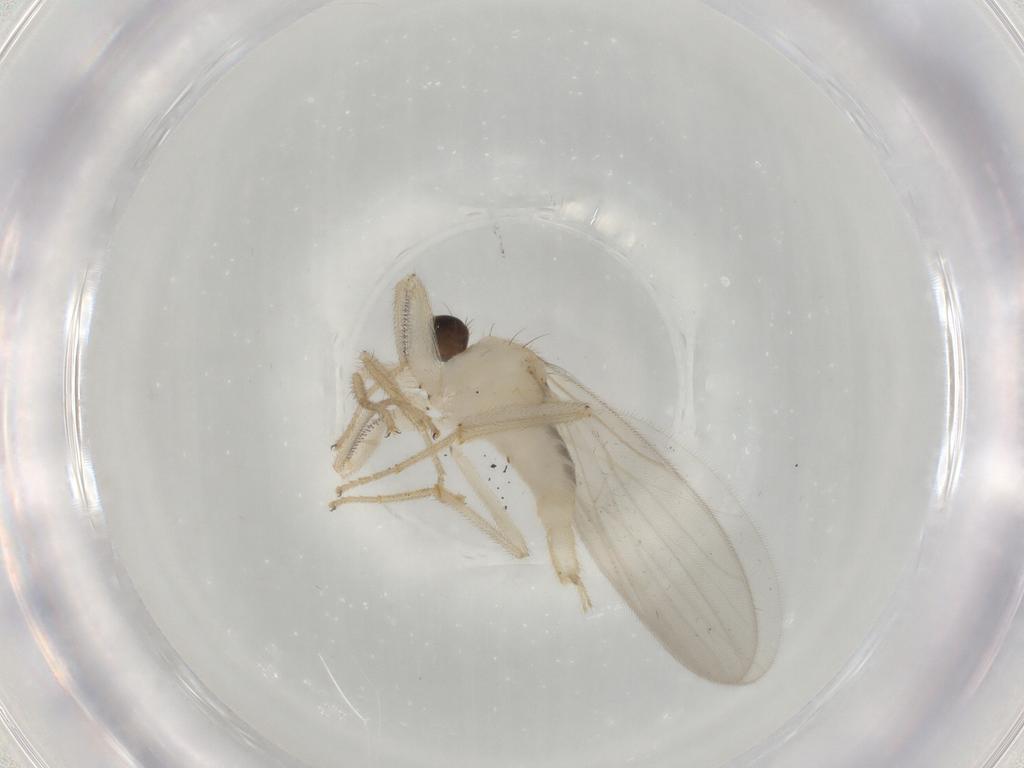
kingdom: Animalia
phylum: Arthropoda
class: Insecta
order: Diptera
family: Hybotidae
